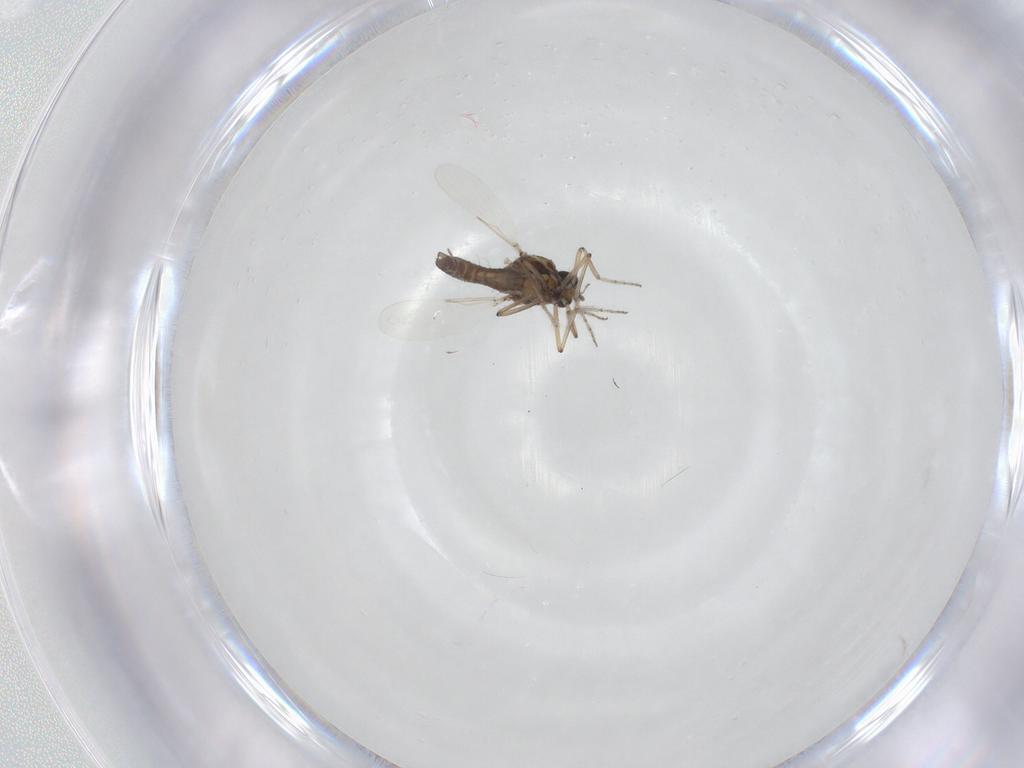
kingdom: Animalia
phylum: Arthropoda
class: Insecta
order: Diptera
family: Ceratopogonidae
